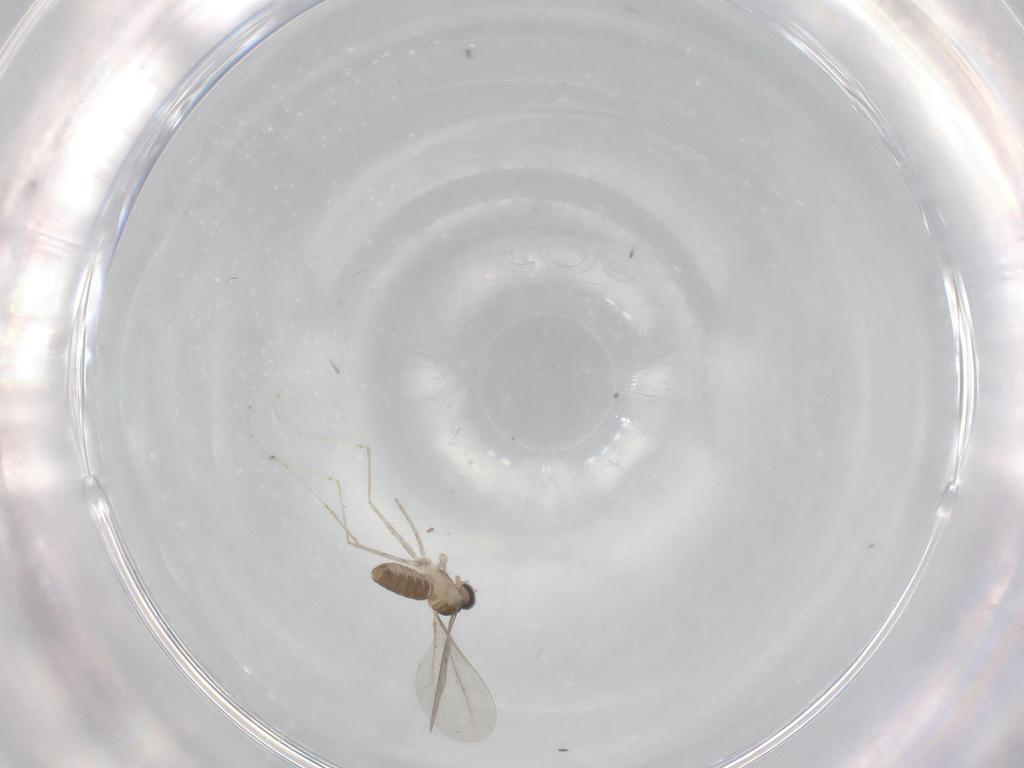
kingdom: Animalia
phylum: Arthropoda
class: Insecta
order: Diptera
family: Cecidomyiidae
